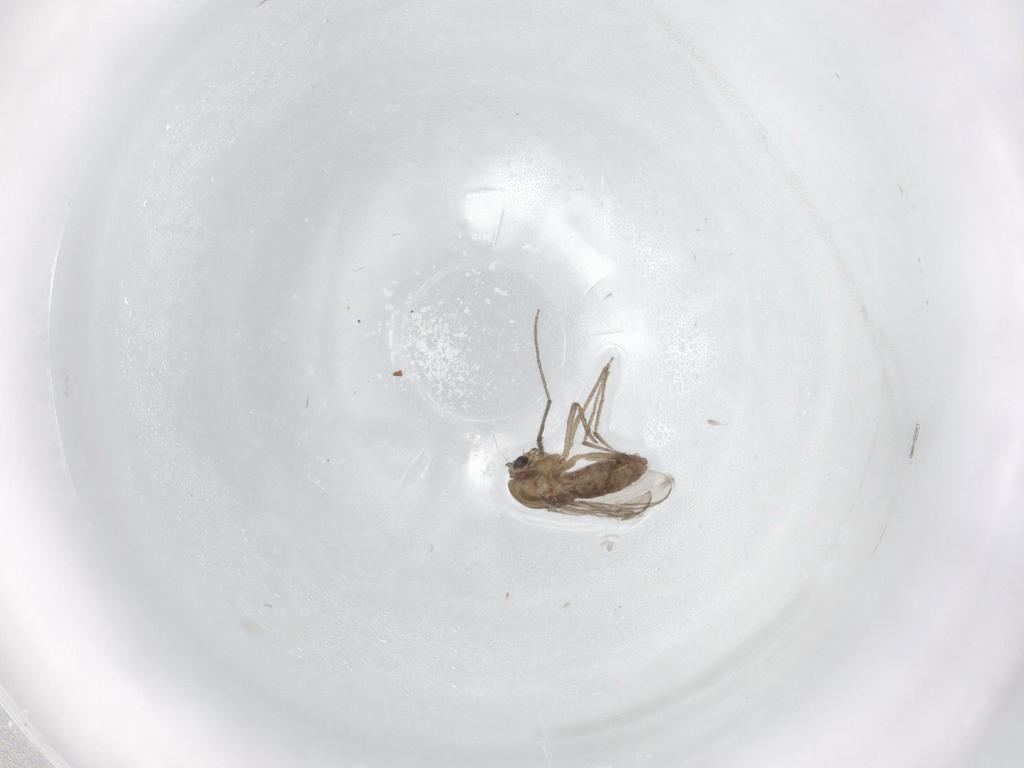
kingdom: Animalia
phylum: Arthropoda
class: Insecta
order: Diptera
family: Chironomidae
